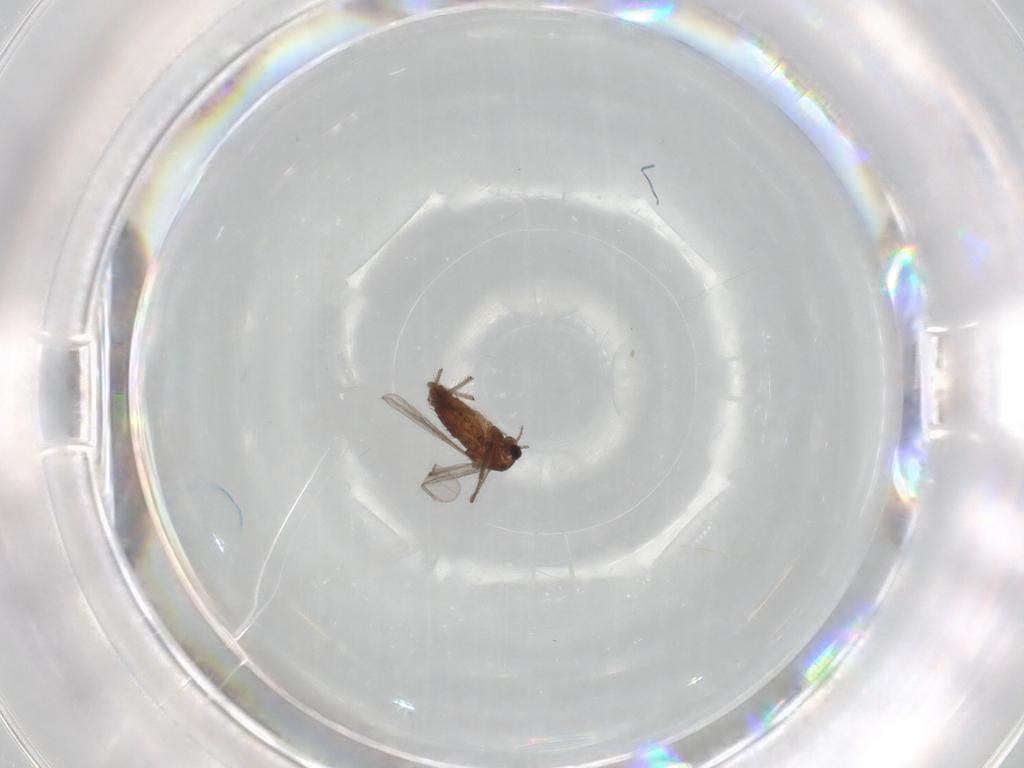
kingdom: Animalia
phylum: Arthropoda
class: Insecta
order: Diptera
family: Chironomidae
